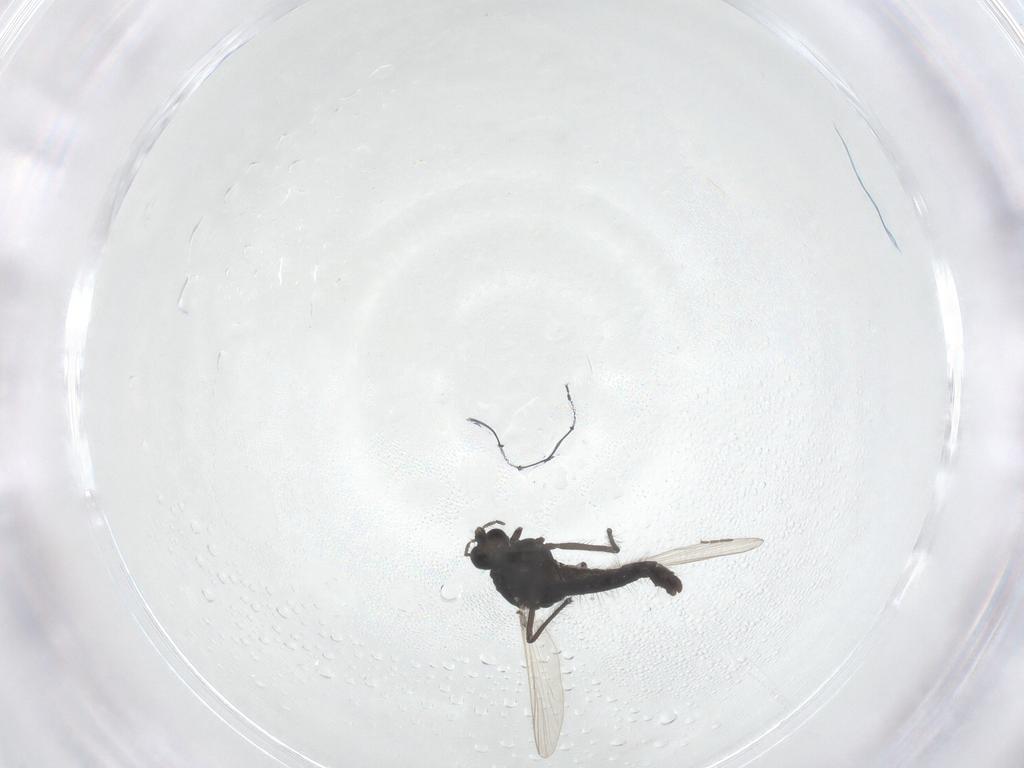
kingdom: Animalia
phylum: Arthropoda
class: Insecta
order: Diptera
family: Chironomidae
